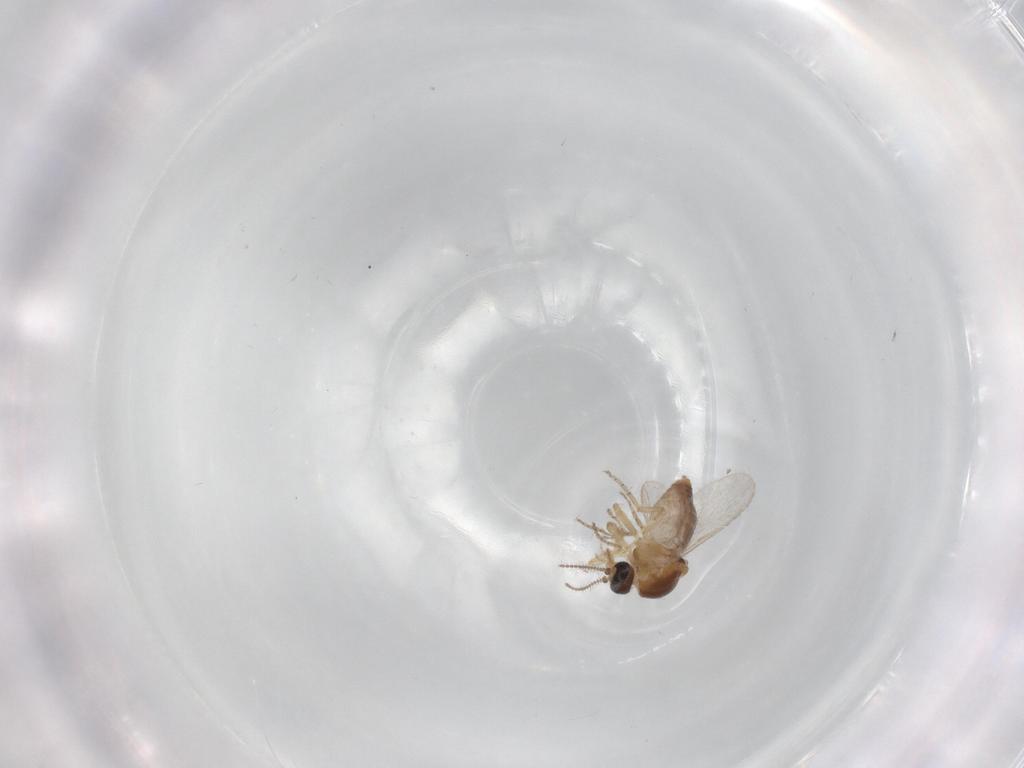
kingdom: Animalia
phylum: Arthropoda
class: Insecta
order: Diptera
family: Ceratopogonidae
